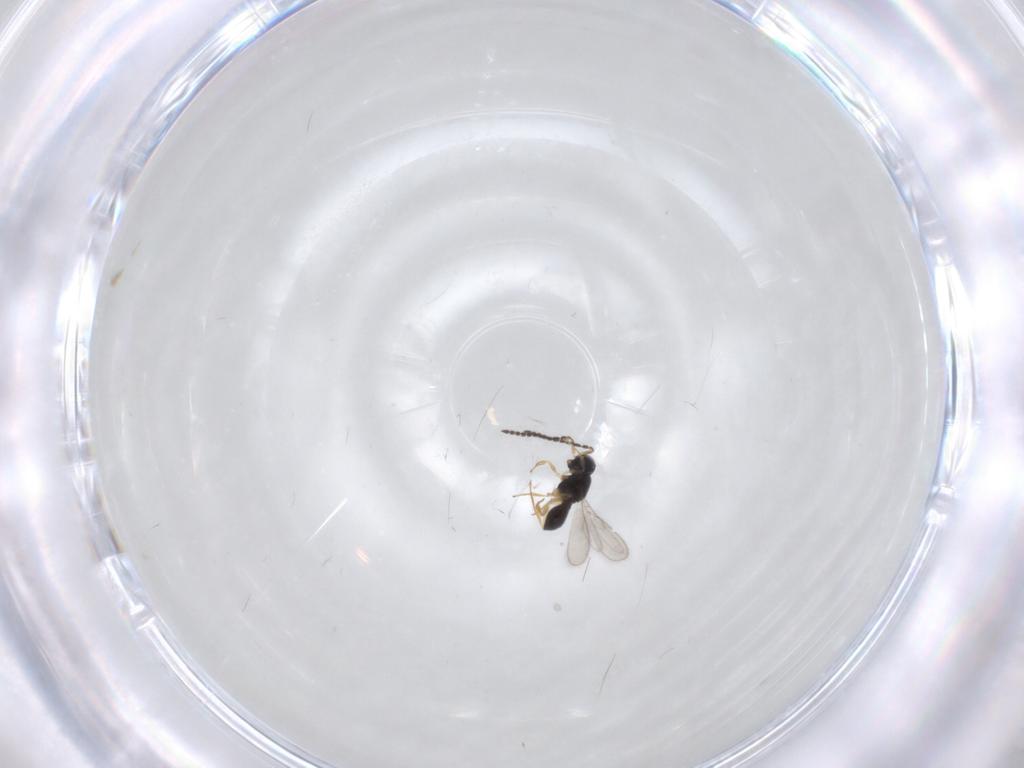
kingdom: Animalia
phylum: Arthropoda
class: Insecta
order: Hymenoptera
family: Scelionidae
